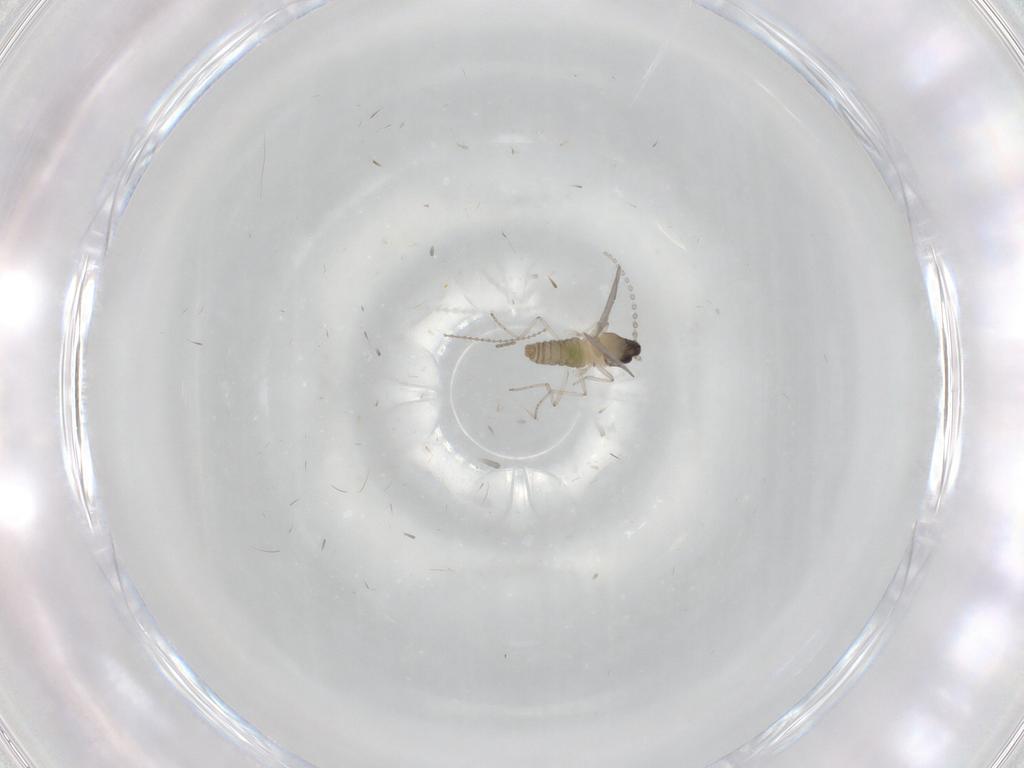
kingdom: Animalia
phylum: Arthropoda
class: Insecta
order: Diptera
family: Cecidomyiidae
